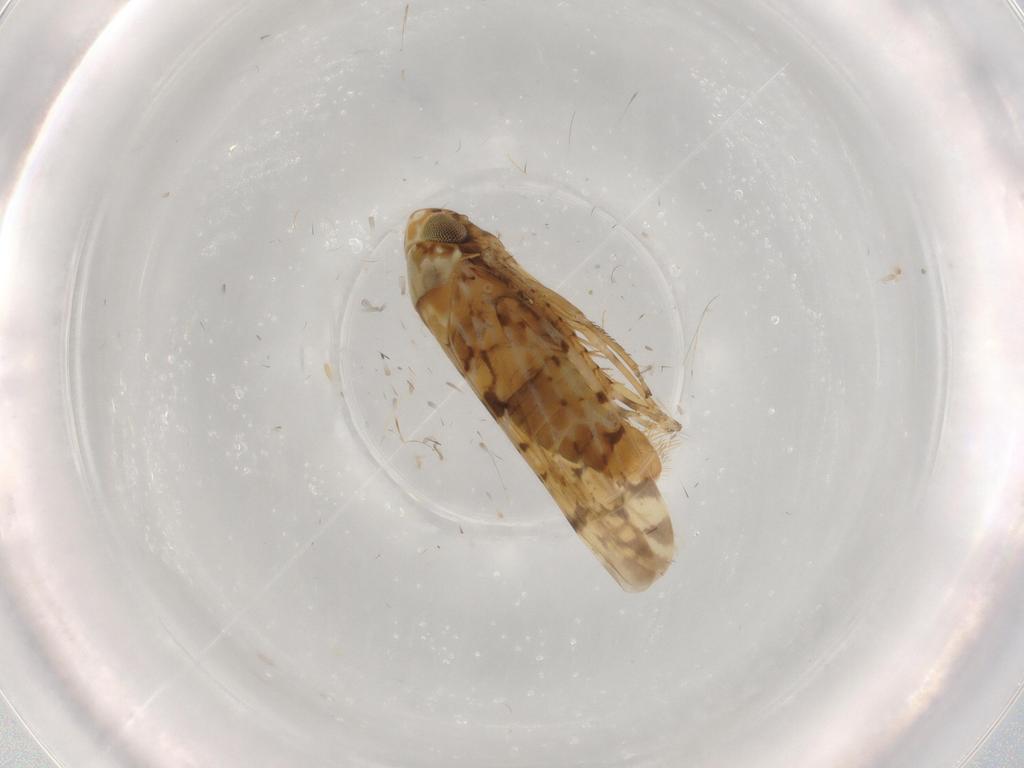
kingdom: Animalia
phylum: Arthropoda
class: Insecta
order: Hemiptera
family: Cicadellidae
